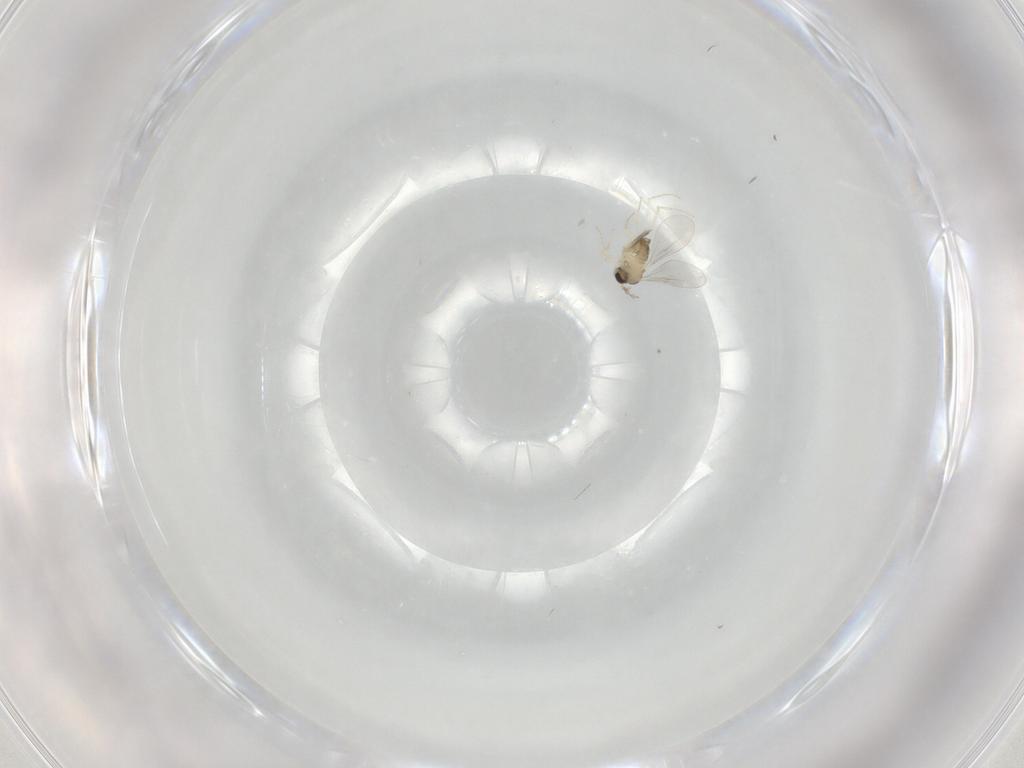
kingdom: Animalia
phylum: Arthropoda
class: Insecta
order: Diptera
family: Cecidomyiidae
